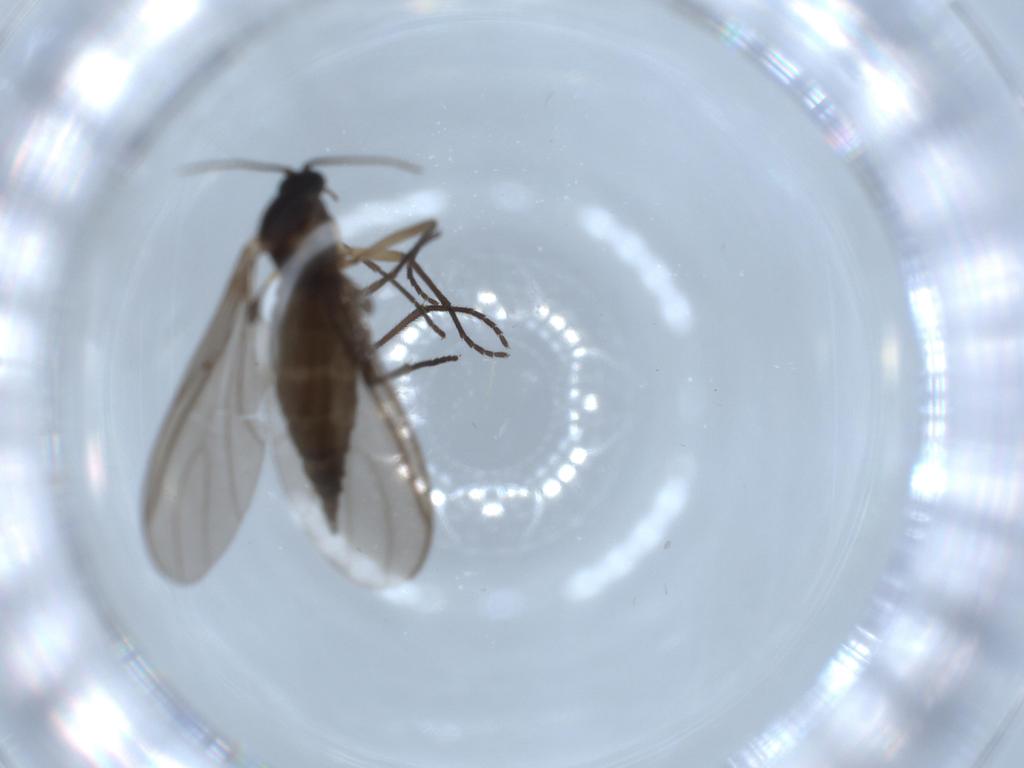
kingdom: Animalia
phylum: Arthropoda
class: Insecta
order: Diptera
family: Sciaridae
